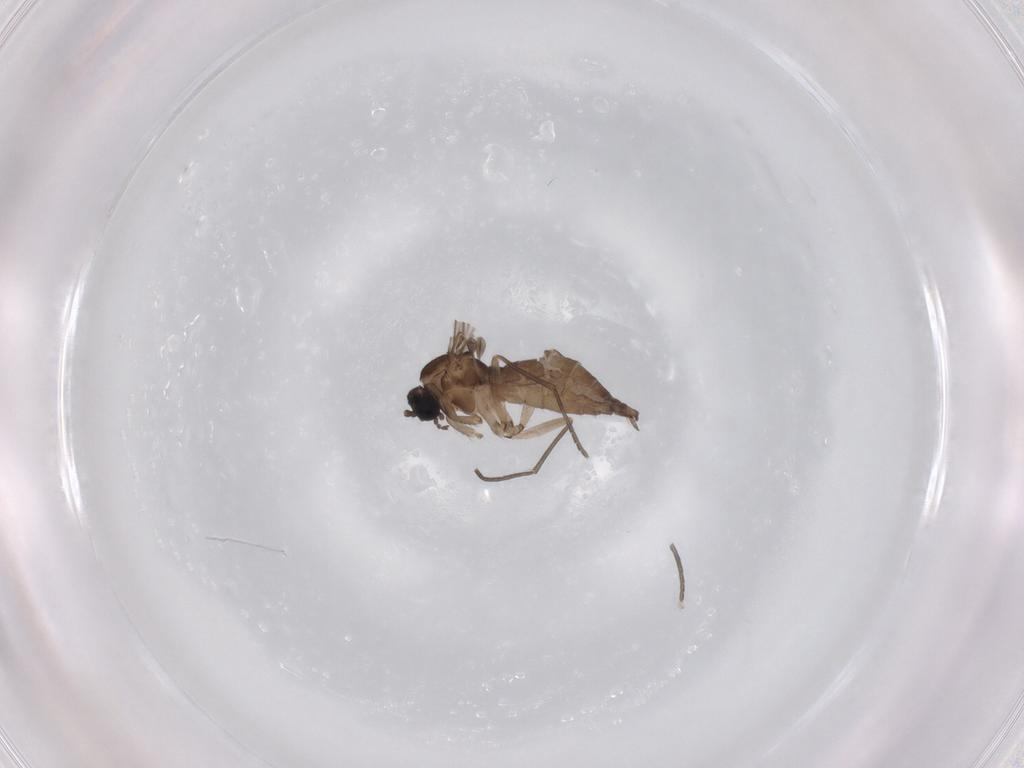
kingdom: Animalia
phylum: Arthropoda
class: Insecta
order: Diptera
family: Sciaridae
